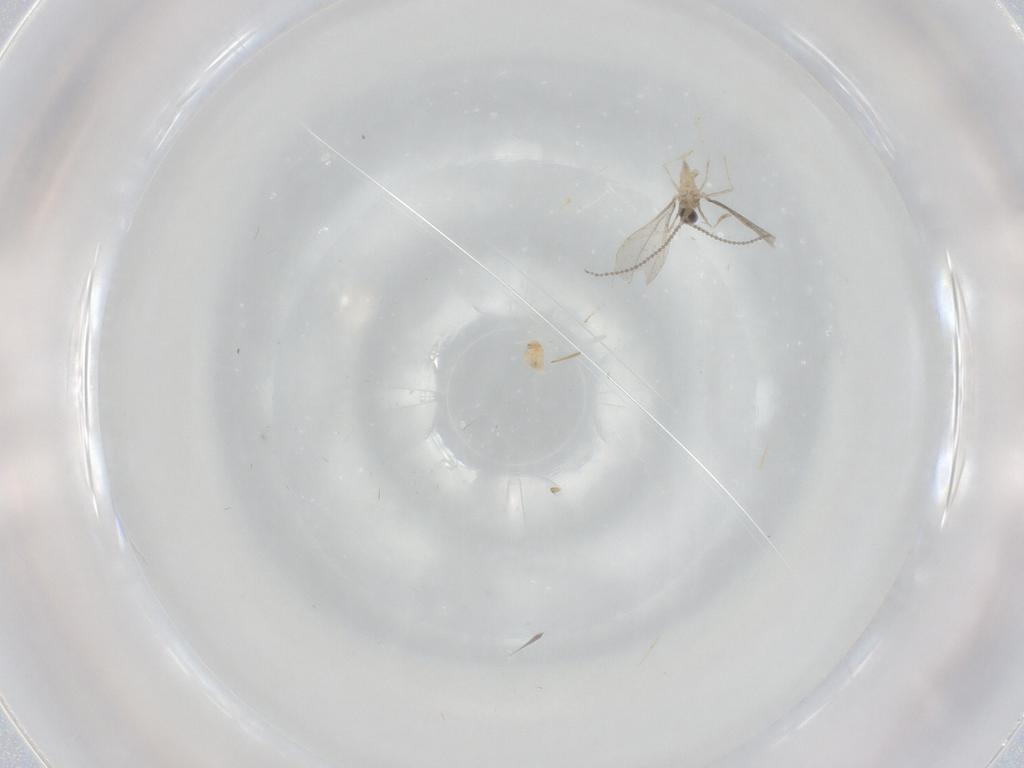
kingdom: Animalia
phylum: Arthropoda
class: Insecta
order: Diptera
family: Cecidomyiidae
